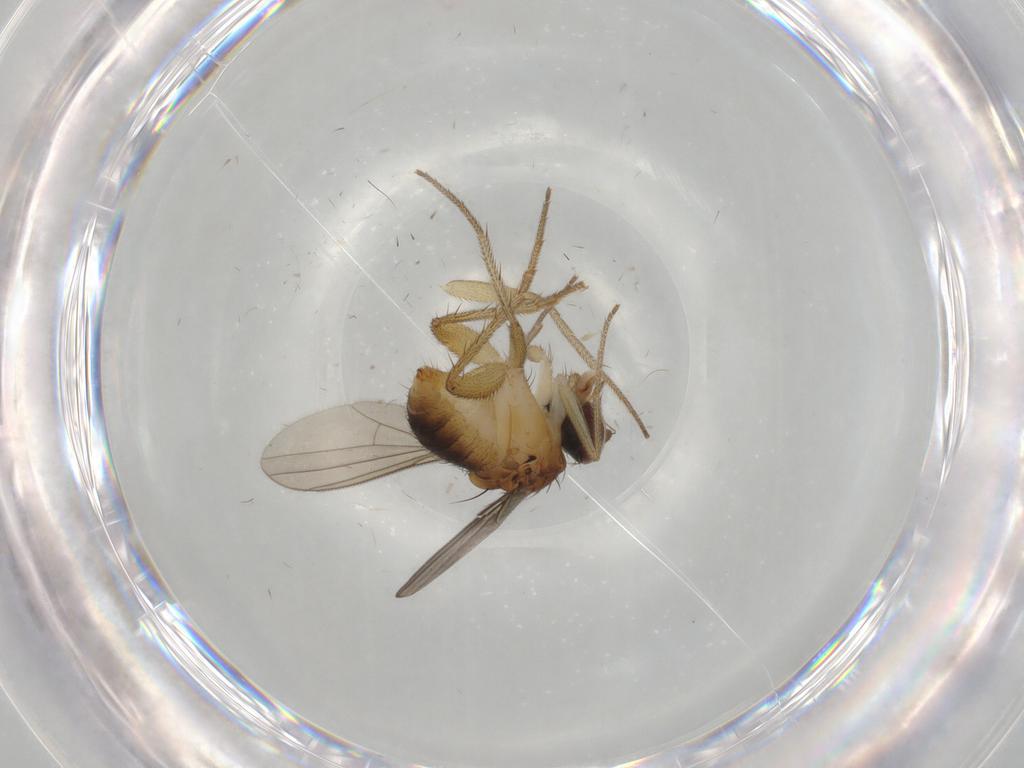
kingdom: Animalia
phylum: Arthropoda
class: Insecta
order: Diptera
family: Dolichopodidae
